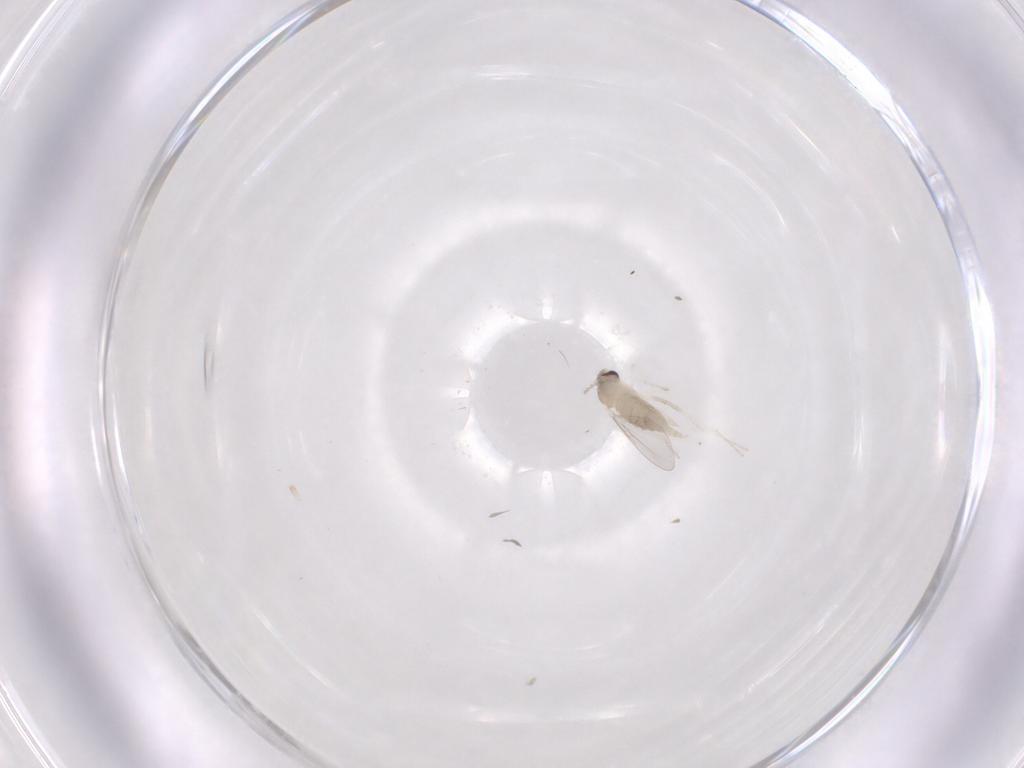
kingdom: Animalia
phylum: Arthropoda
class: Insecta
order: Diptera
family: Cecidomyiidae
